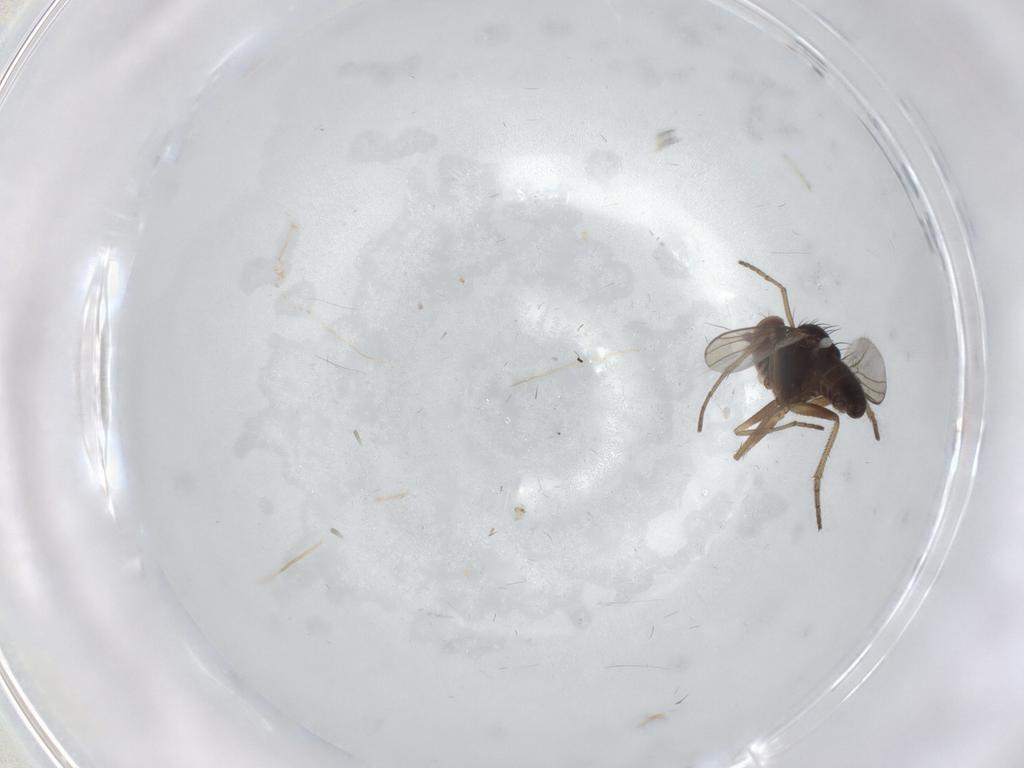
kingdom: Animalia
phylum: Arthropoda
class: Insecta
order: Diptera
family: Dolichopodidae
